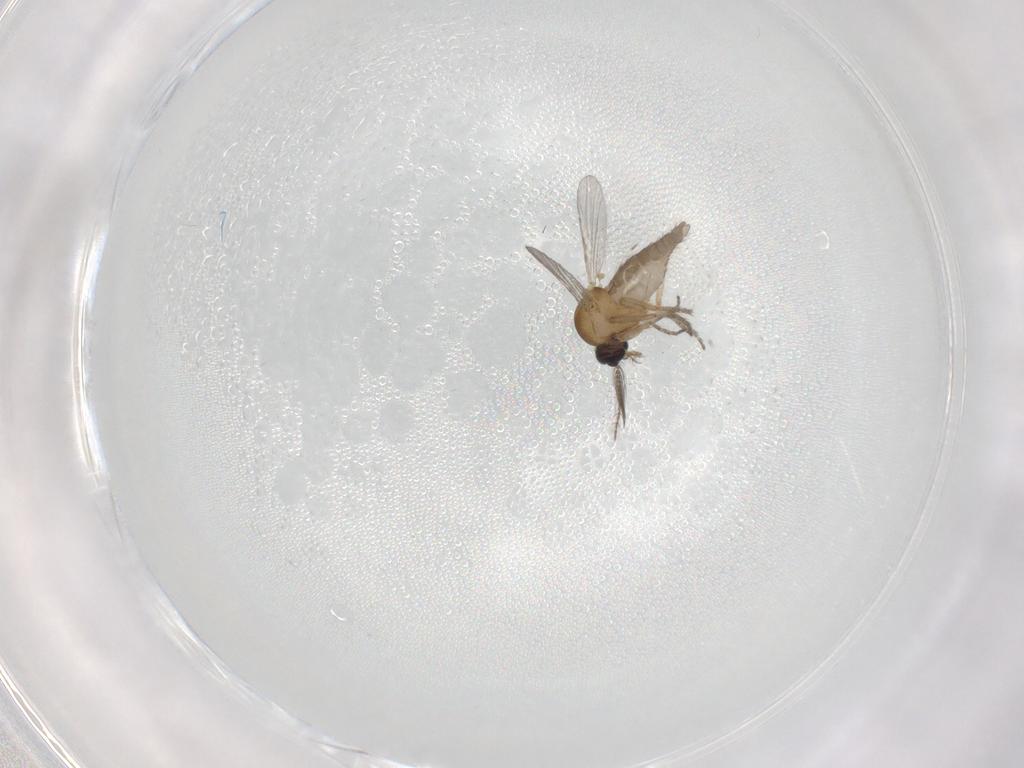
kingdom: Animalia
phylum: Arthropoda
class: Insecta
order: Diptera
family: Ceratopogonidae
